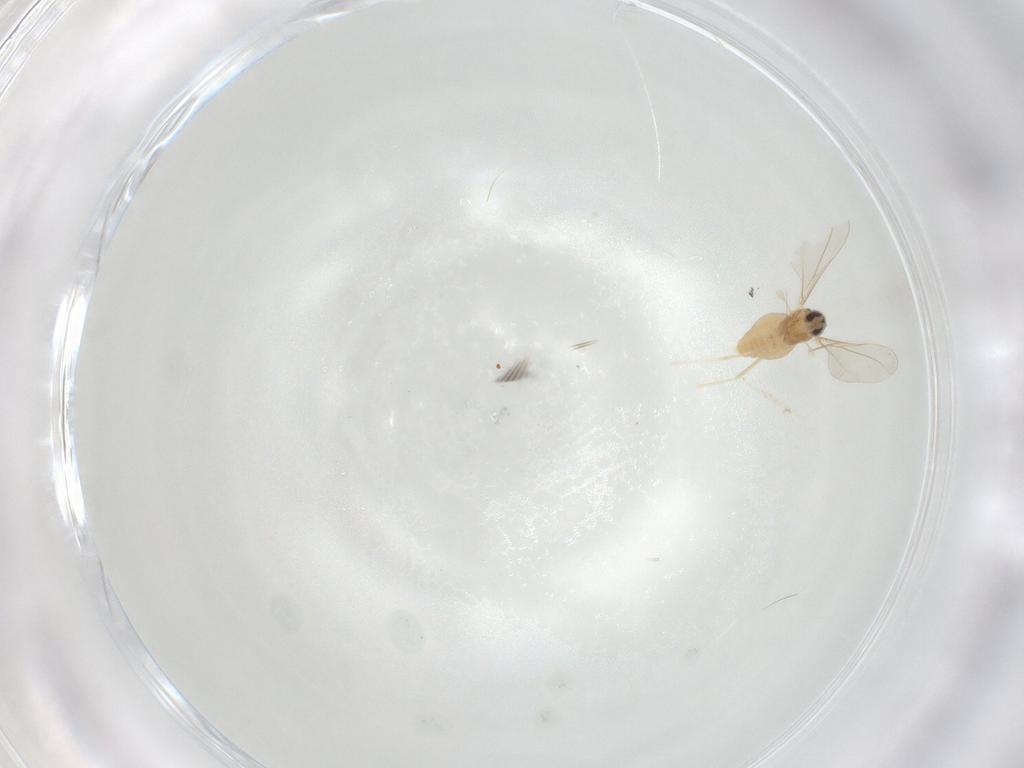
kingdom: Animalia
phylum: Arthropoda
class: Insecta
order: Diptera
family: Cecidomyiidae
